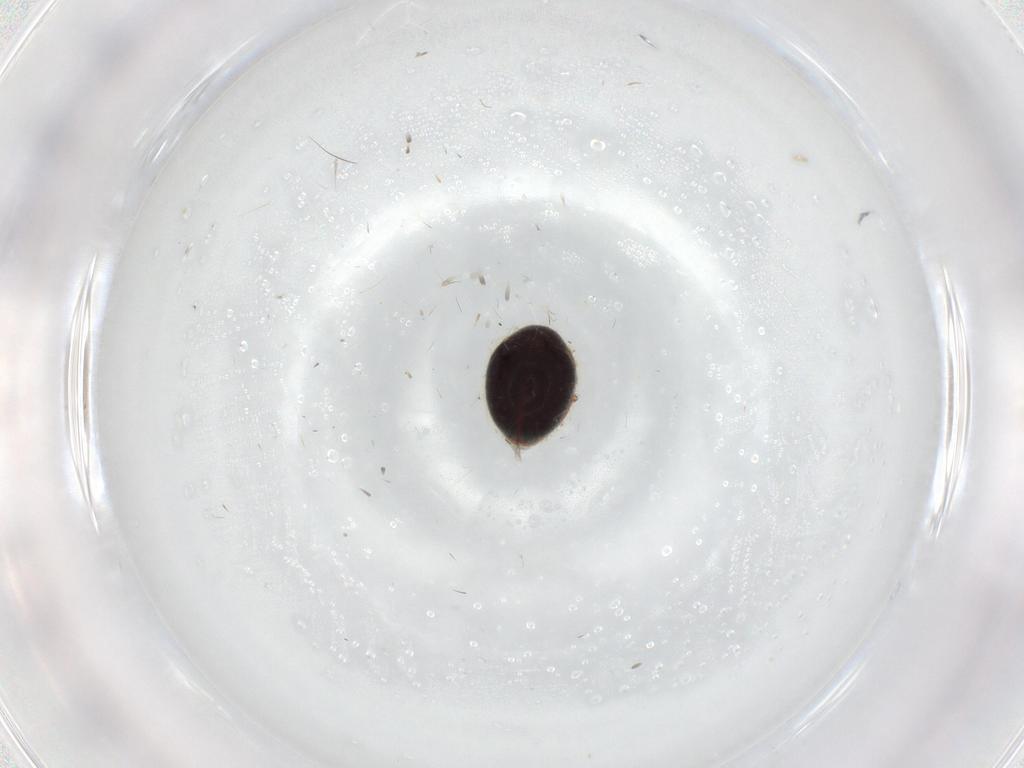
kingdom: Animalia
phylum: Arthropoda
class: Insecta
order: Coleoptera
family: Coccinellidae
